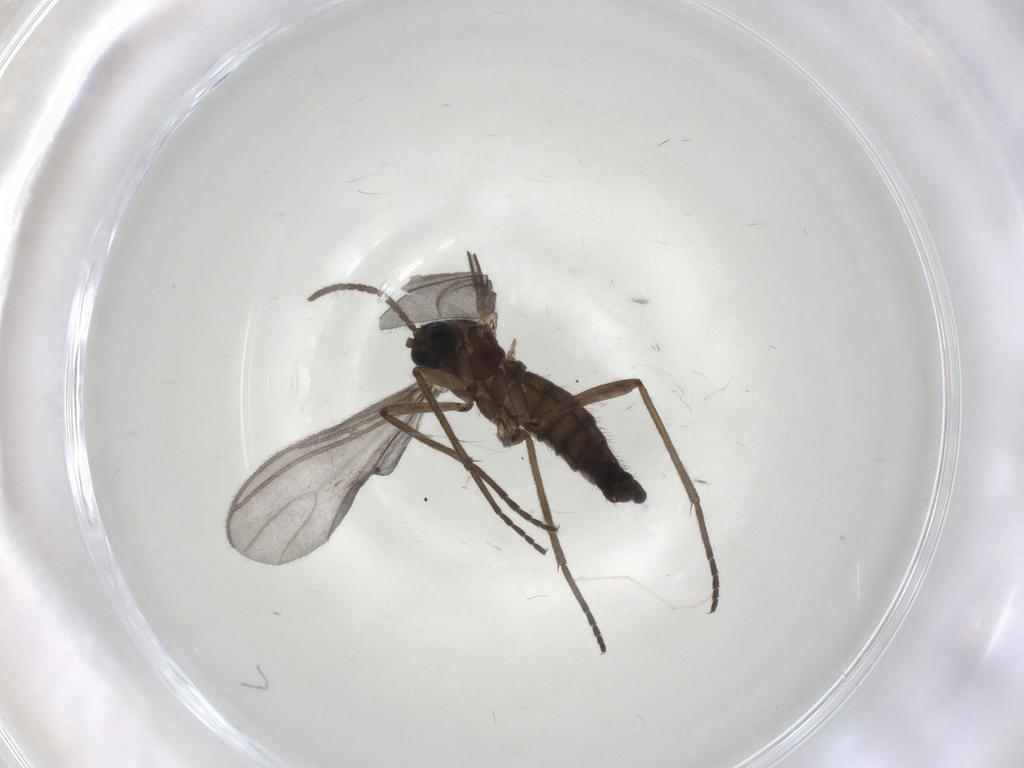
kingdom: Animalia
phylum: Arthropoda
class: Insecta
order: Diptera
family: Sciaridae
